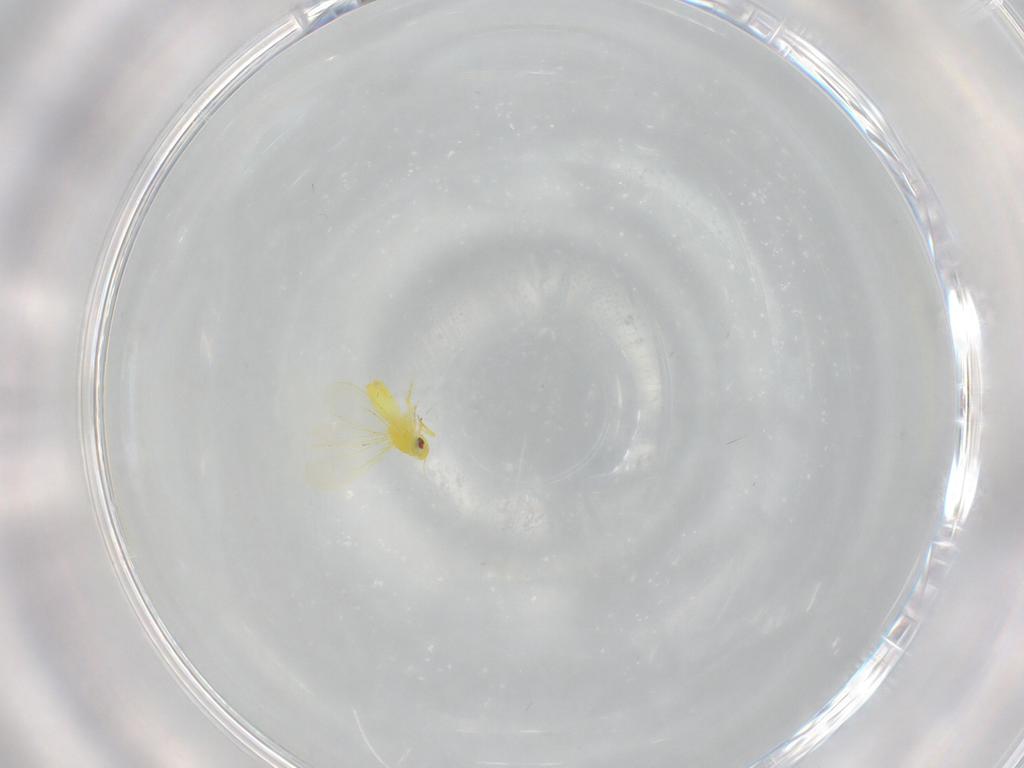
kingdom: Animalia
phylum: Arthropoda
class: Insecta
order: Hemiptera
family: Aleyrodidae
